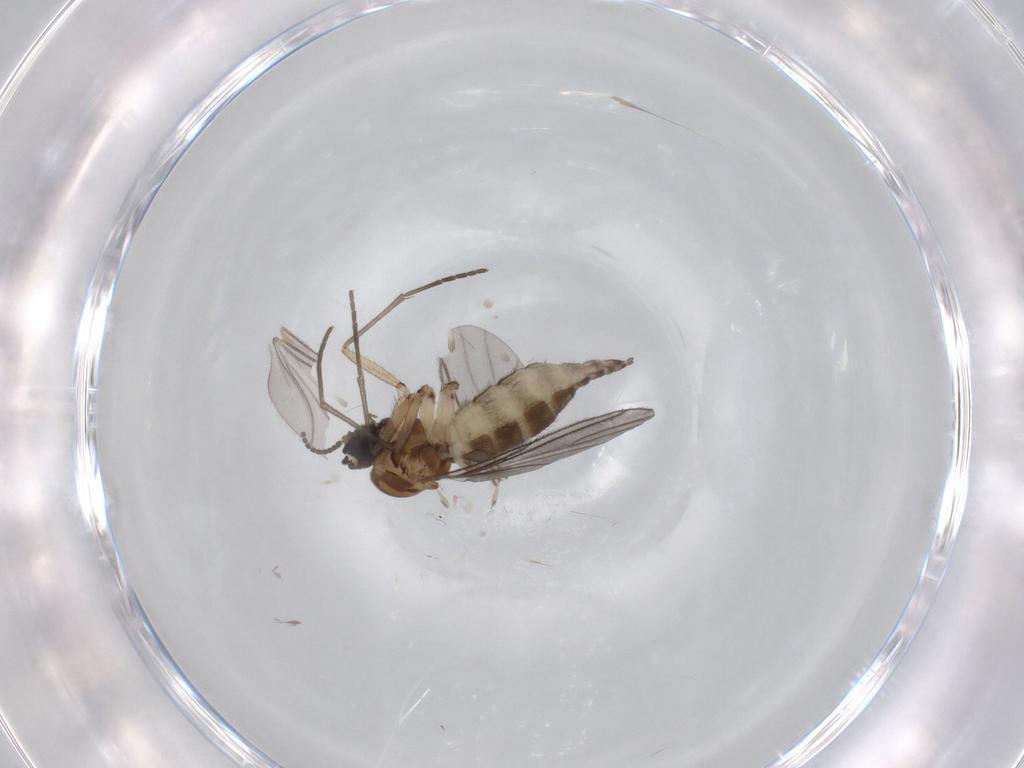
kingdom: Animalia
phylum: Arthropoda
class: Insecta
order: Diptera
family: Sciaridae
